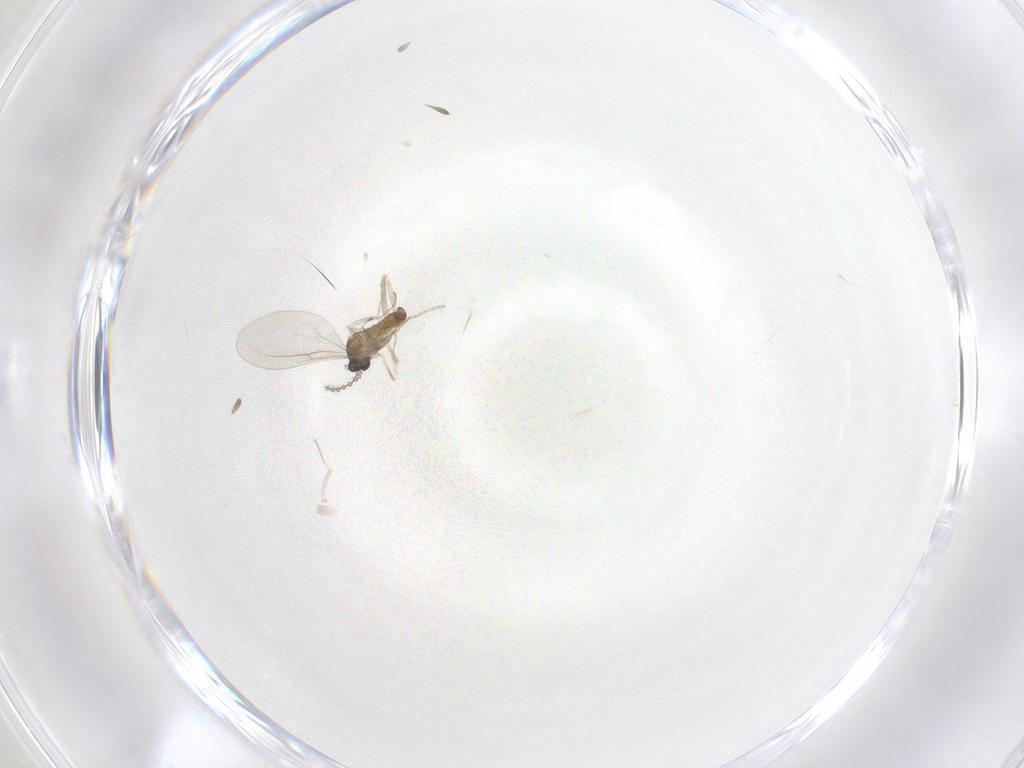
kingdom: Animalia
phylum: Arthropoda
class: Insecta
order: Diptera
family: Cecidomyiidae
